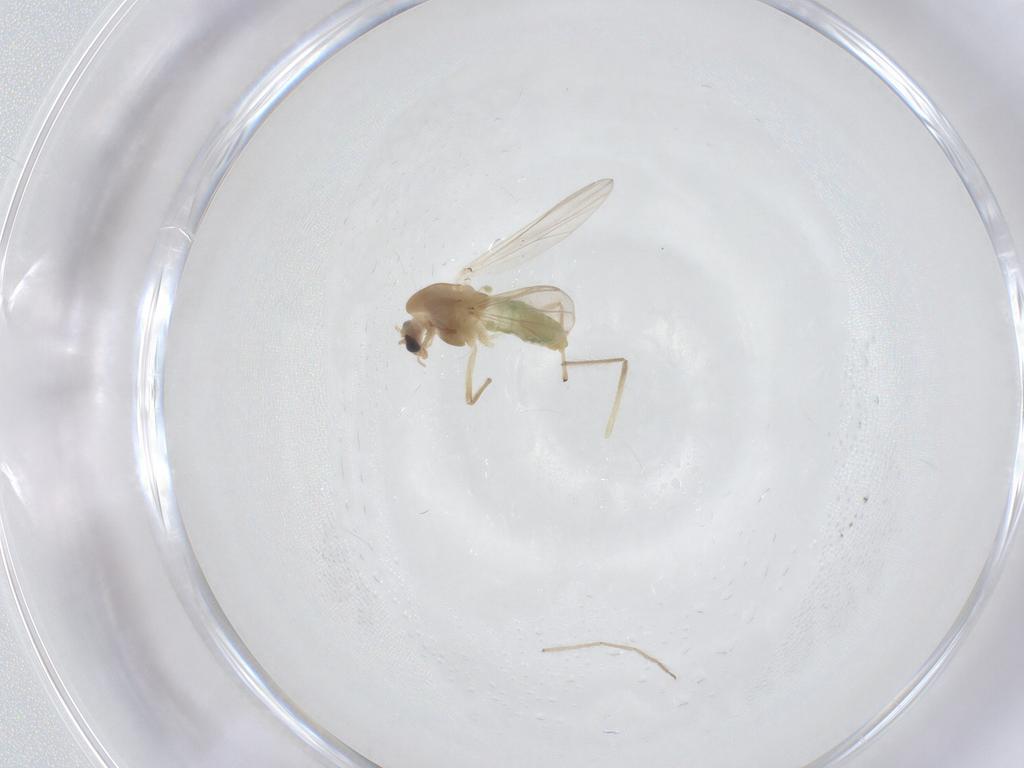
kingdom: Animalia
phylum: Arthropoda
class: Insecta
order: Diptera
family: Chironomidae
